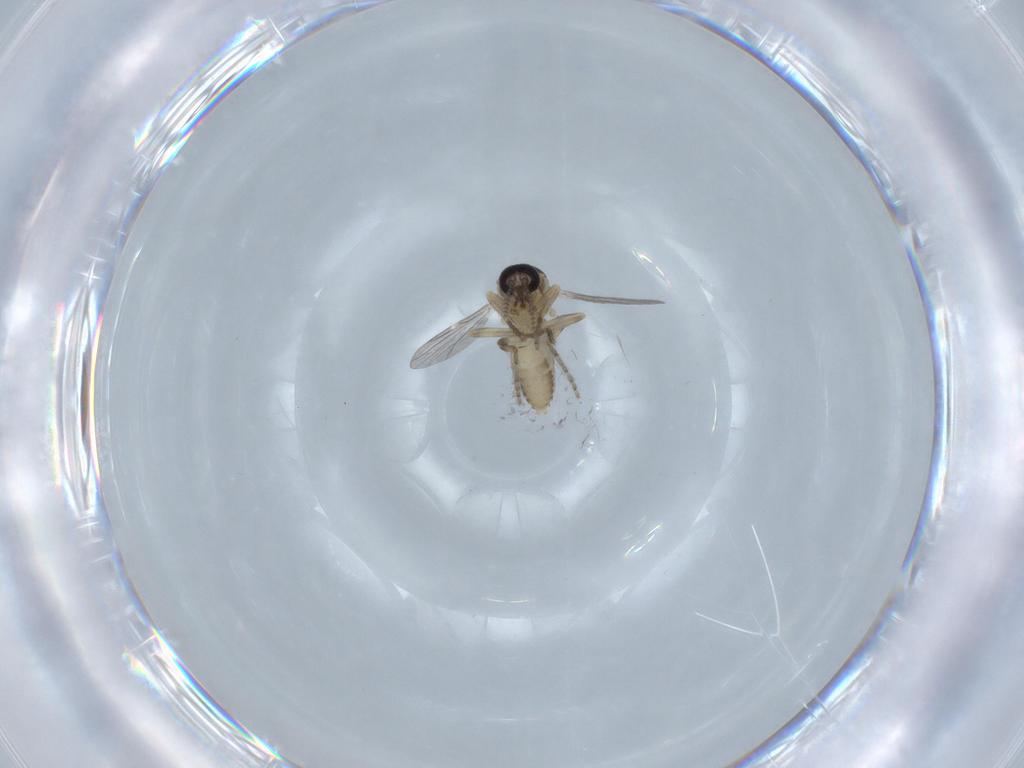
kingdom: Animalia
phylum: Arthropoda
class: Insecta
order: Diptera
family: Ceratopogonidae
